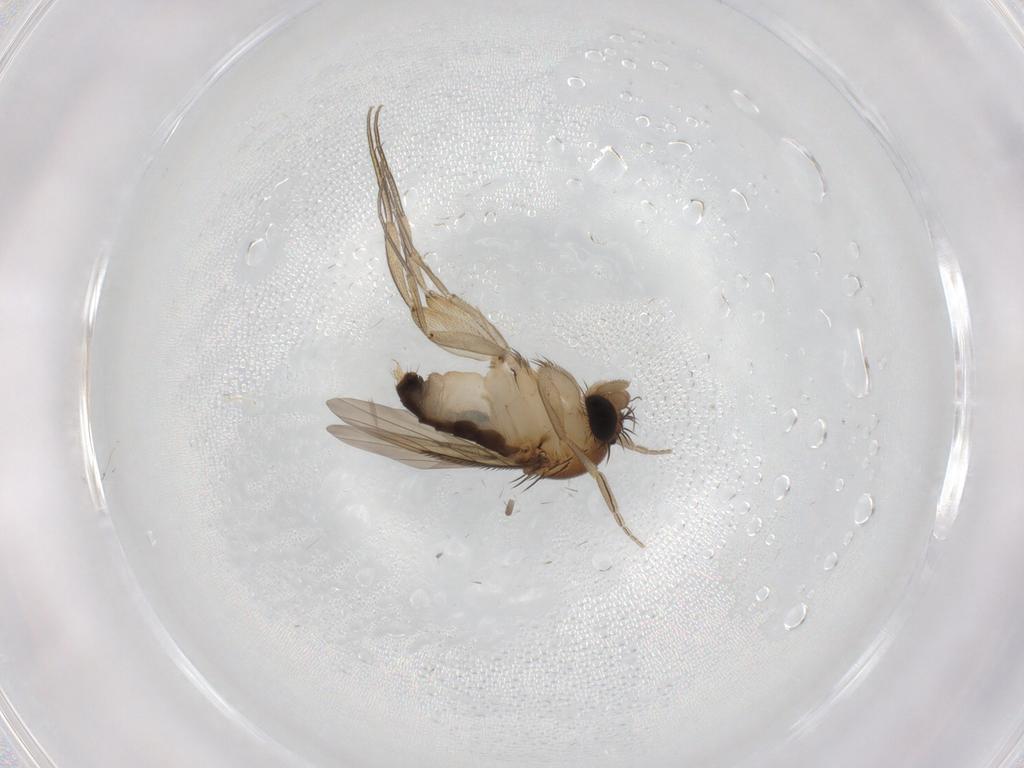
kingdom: Animalia
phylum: Arthropoda
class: Insecta
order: Diptera
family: Phoridae
